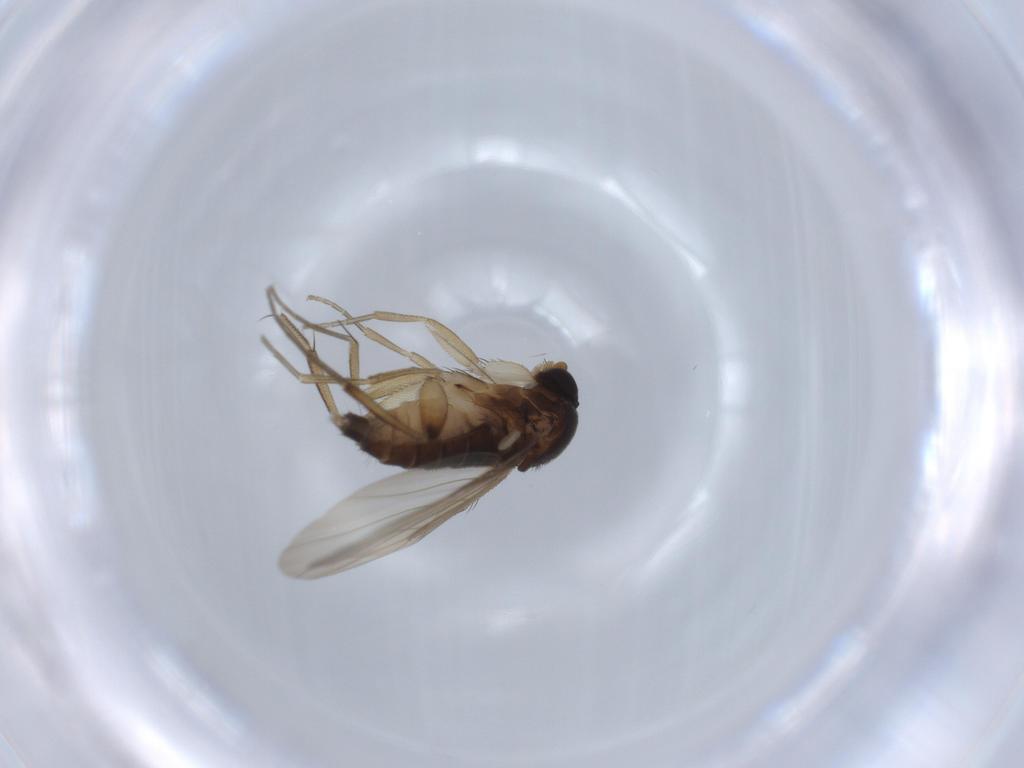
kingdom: Animalia
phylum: Arthropoda
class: Insecta
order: Diptera
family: Phoridae
